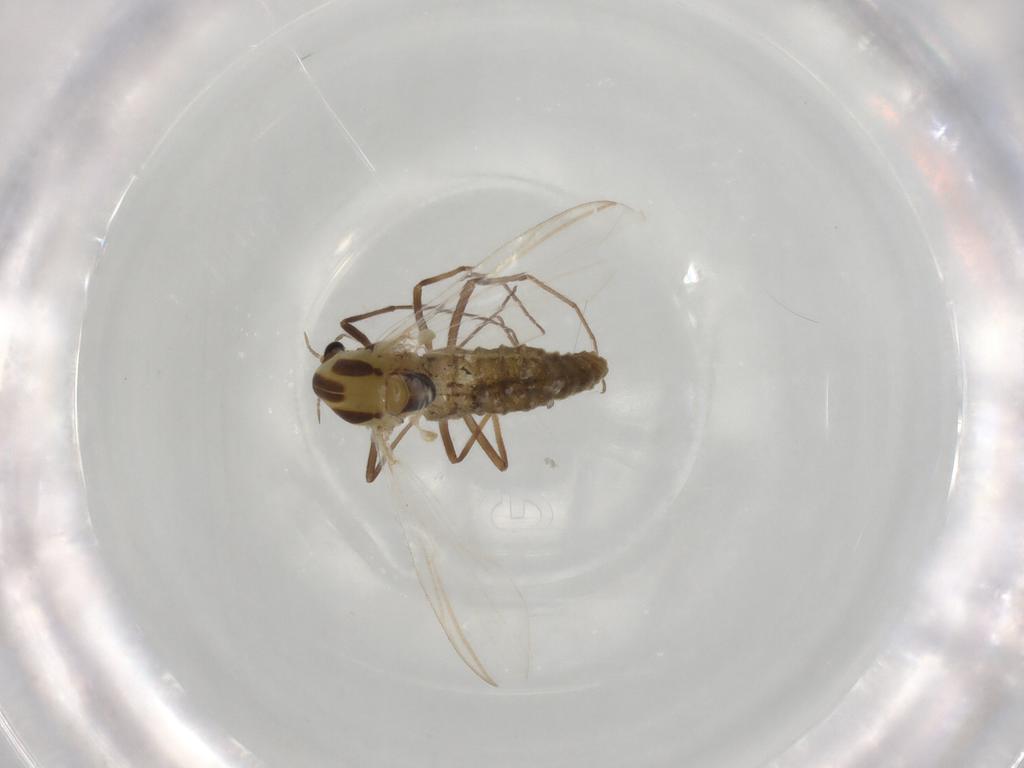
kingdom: Animalia
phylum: Arthropoda
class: Insecta
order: Diptera
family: Chironomidae
